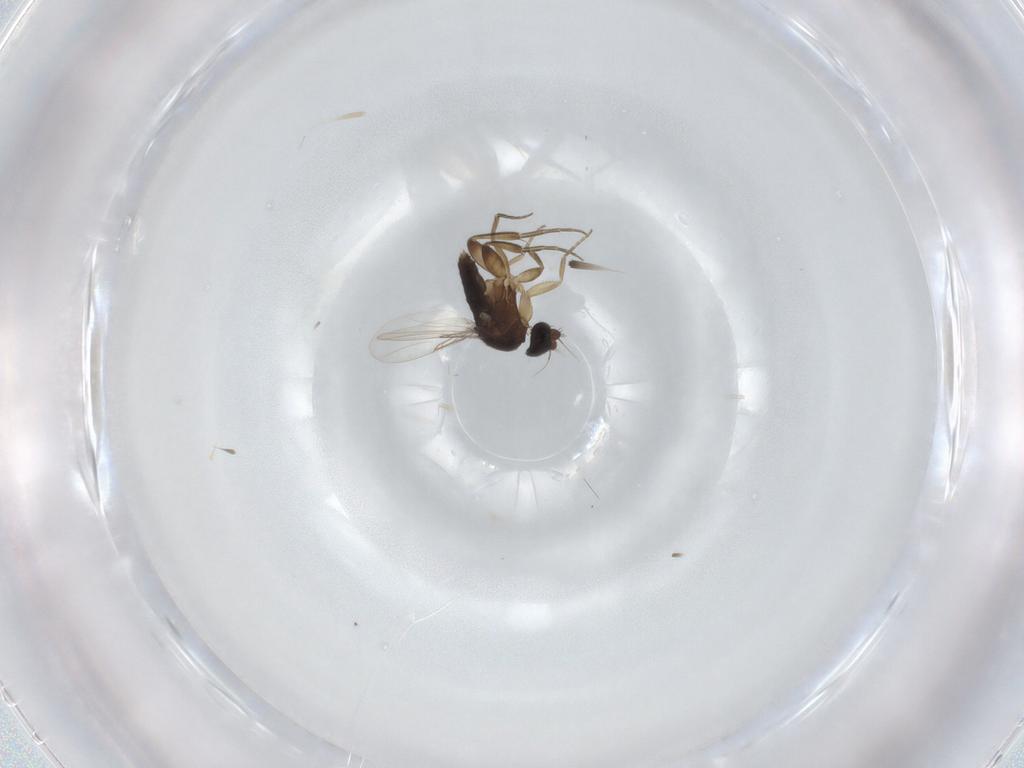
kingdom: Animalia
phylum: Arthropoda
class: Insecta
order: Diptera
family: Phoridae
